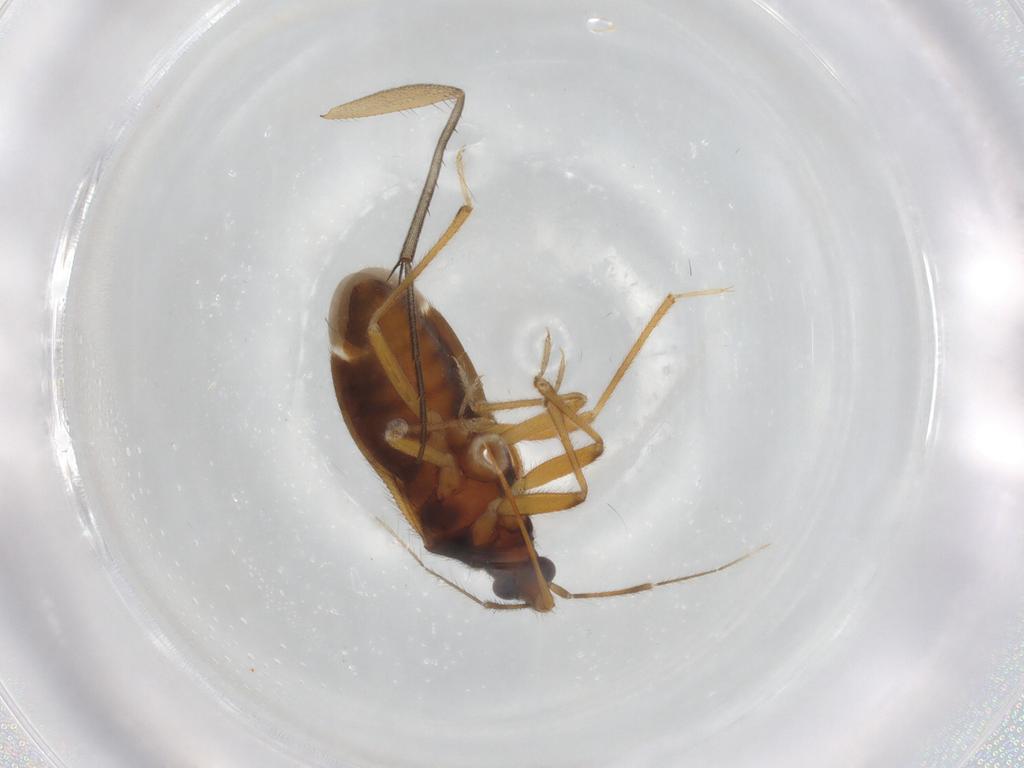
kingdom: Animalia
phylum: Arthropoda
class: Insecta
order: Hemiptera
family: Anthocoridae
